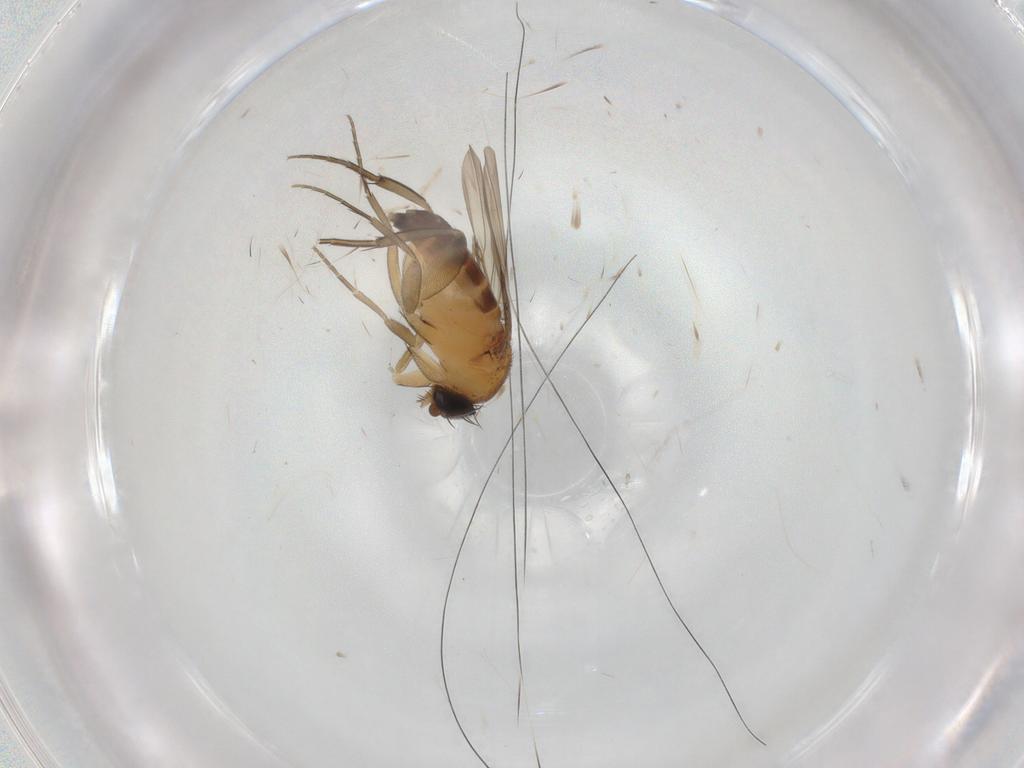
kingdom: Animalia
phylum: Arthropoda
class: Insecta
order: Diptera
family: Phoridae
